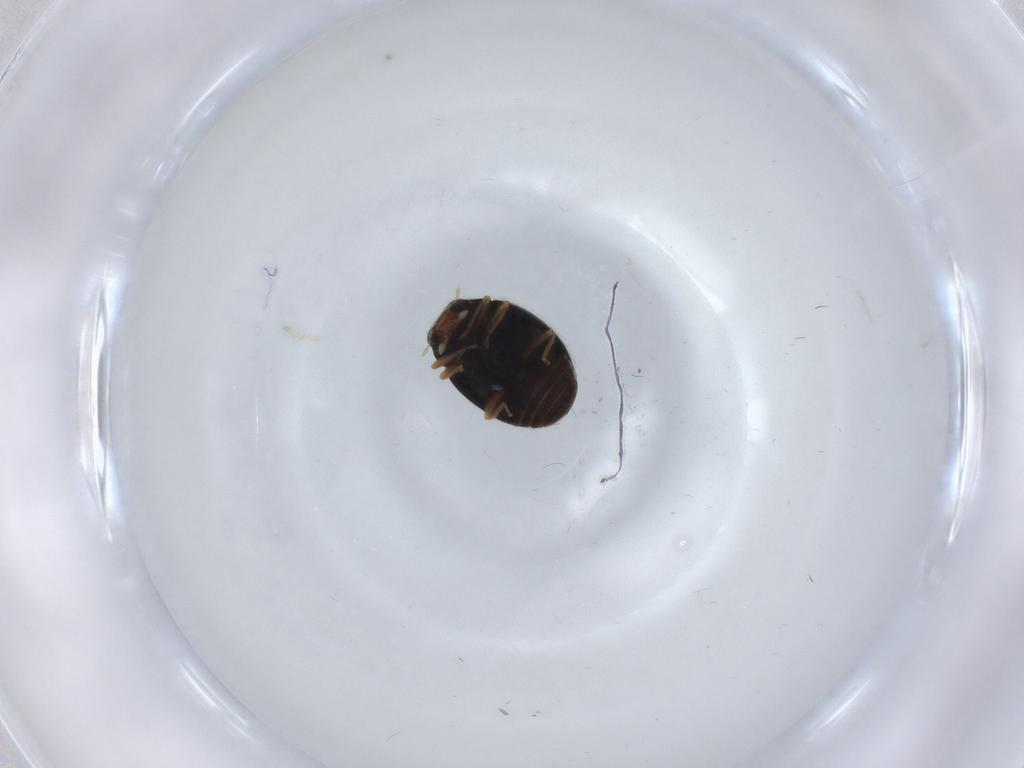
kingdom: Animalia
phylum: Arthropoda
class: Insecta
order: Coleoptera
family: Coccinellidae
